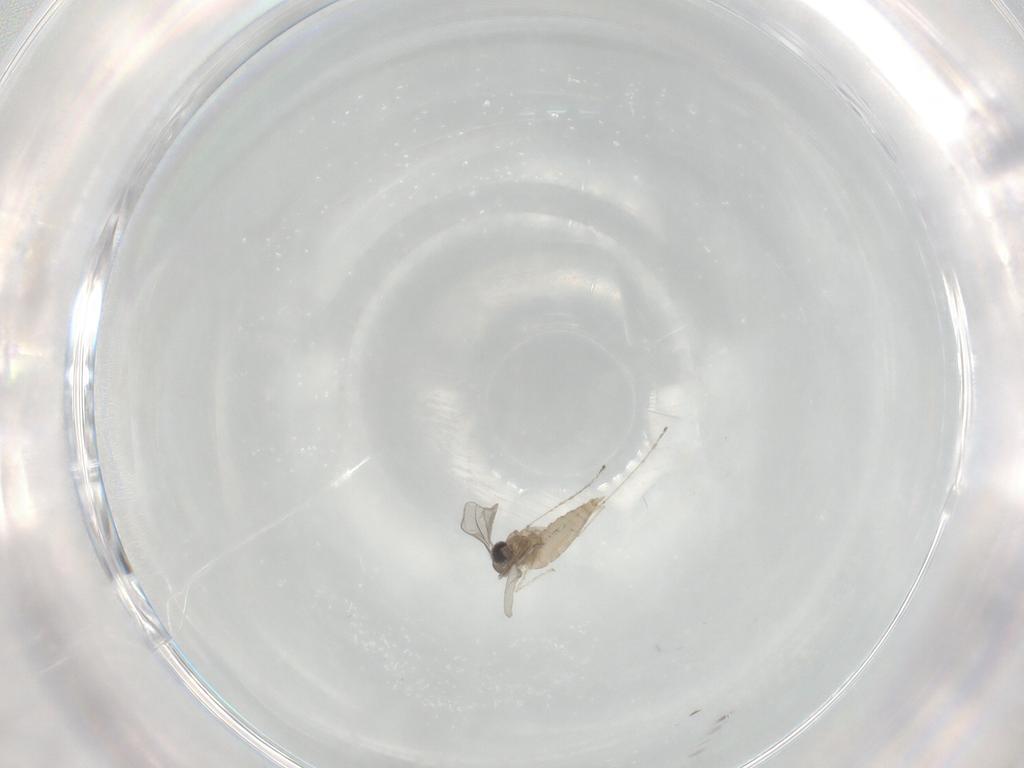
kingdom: Animalia
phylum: Arthropoda
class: Insecta
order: Diptera
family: Cecidomyiidae
